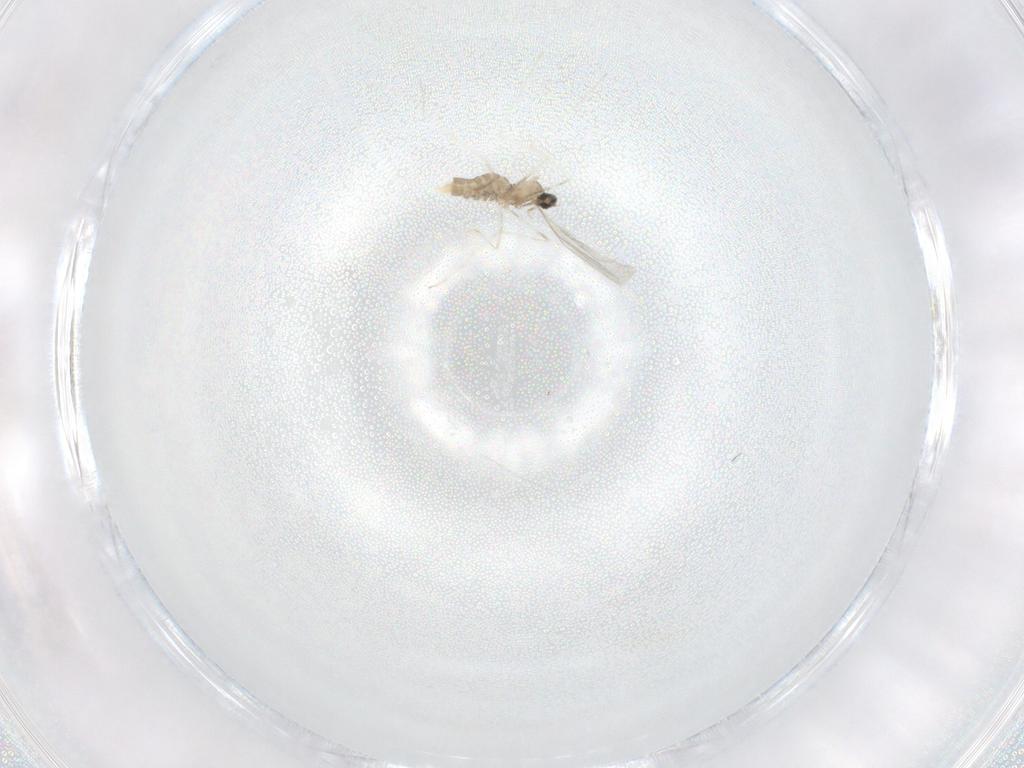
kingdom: Animalia
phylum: Arthropoda
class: Insecta
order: Diptera
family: Cecidomyiidae
